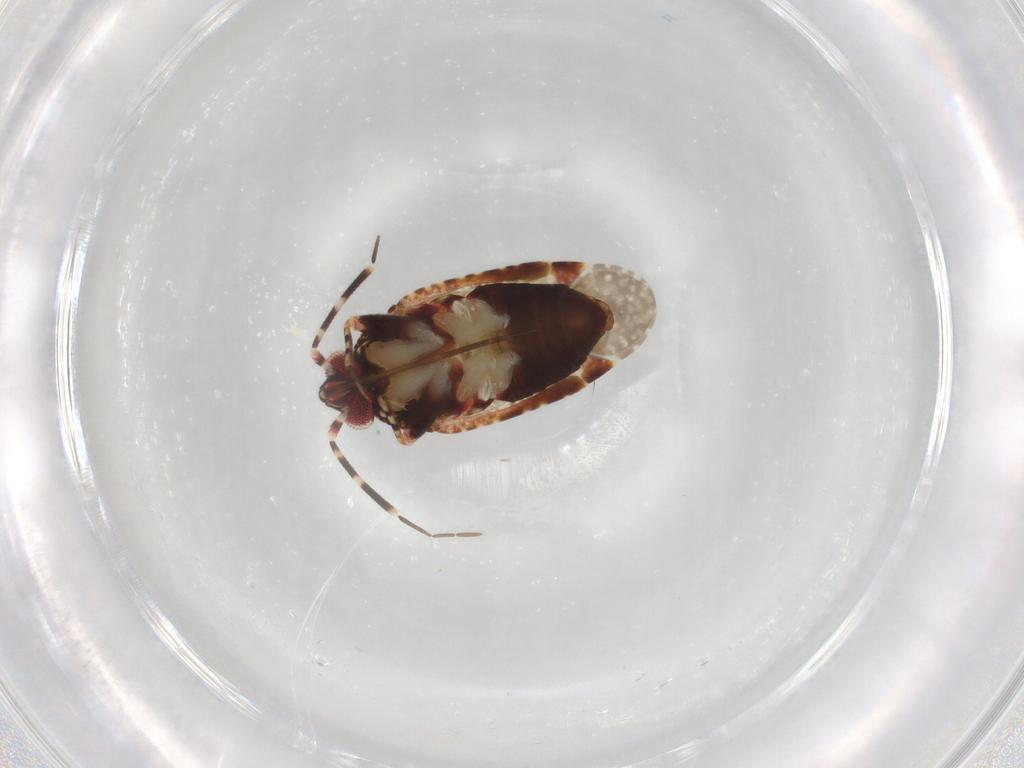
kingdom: Animalia
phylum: Arthropoda
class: Insecta
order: Hemiptera
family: Miridae
